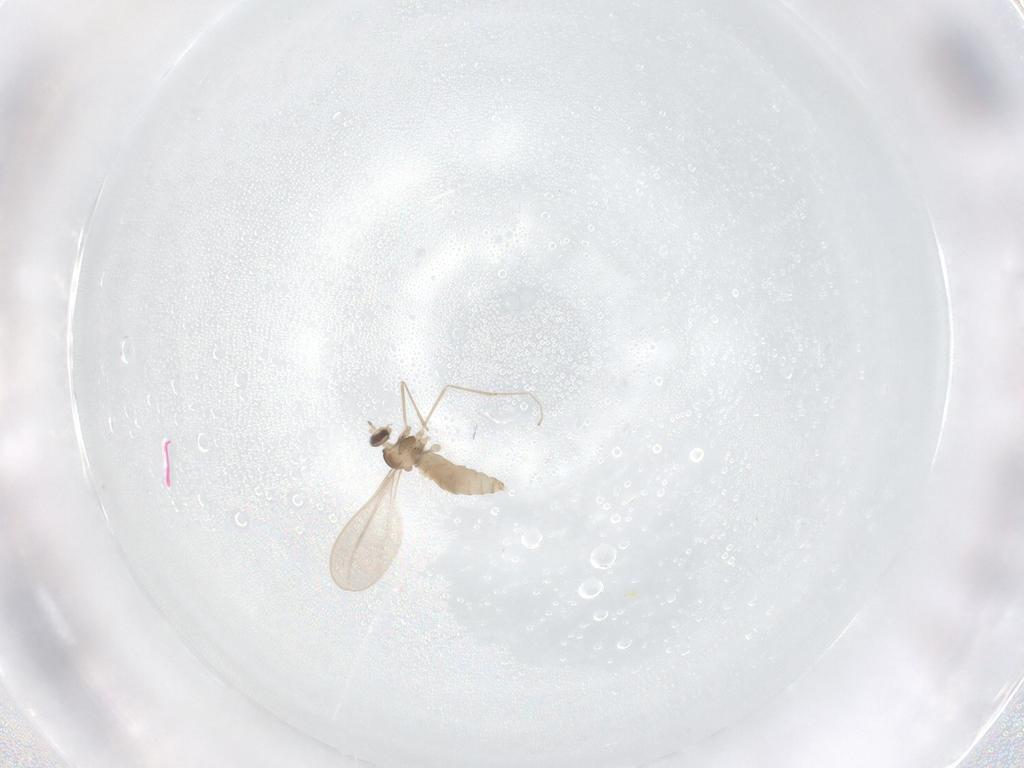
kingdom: Animalia
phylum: Arthropoda
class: Insecta
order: Diptera
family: Cecidomyiidae
